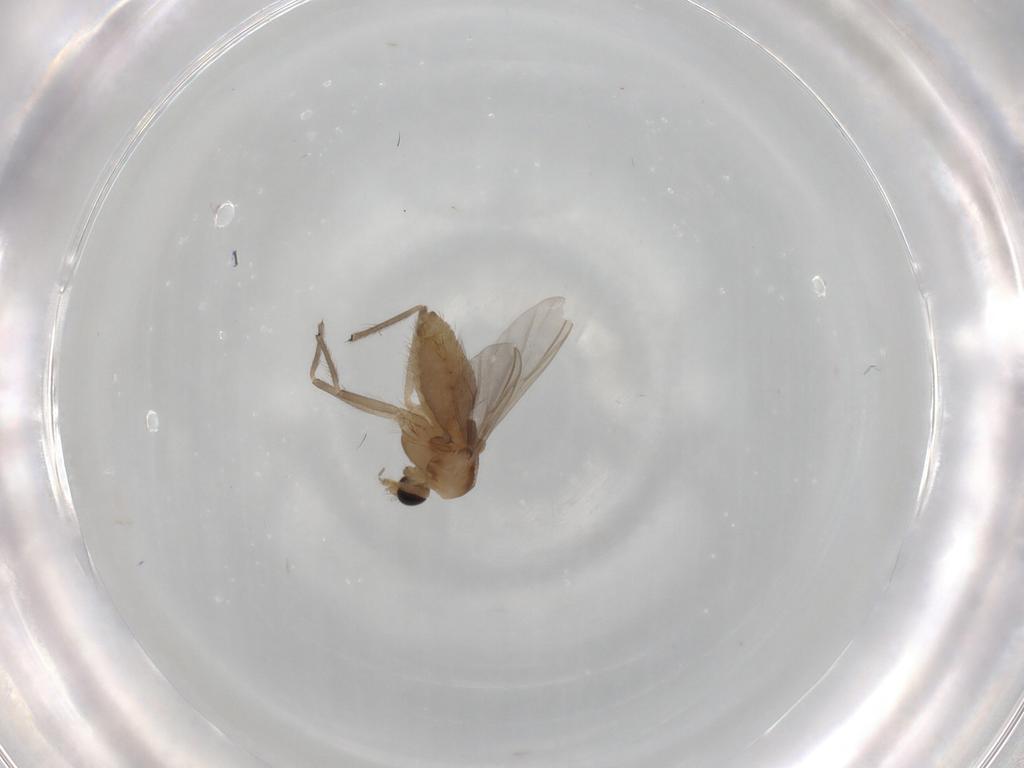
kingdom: Animalia
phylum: Arthropoda
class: Insecta
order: Diptera
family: Chironomidae
